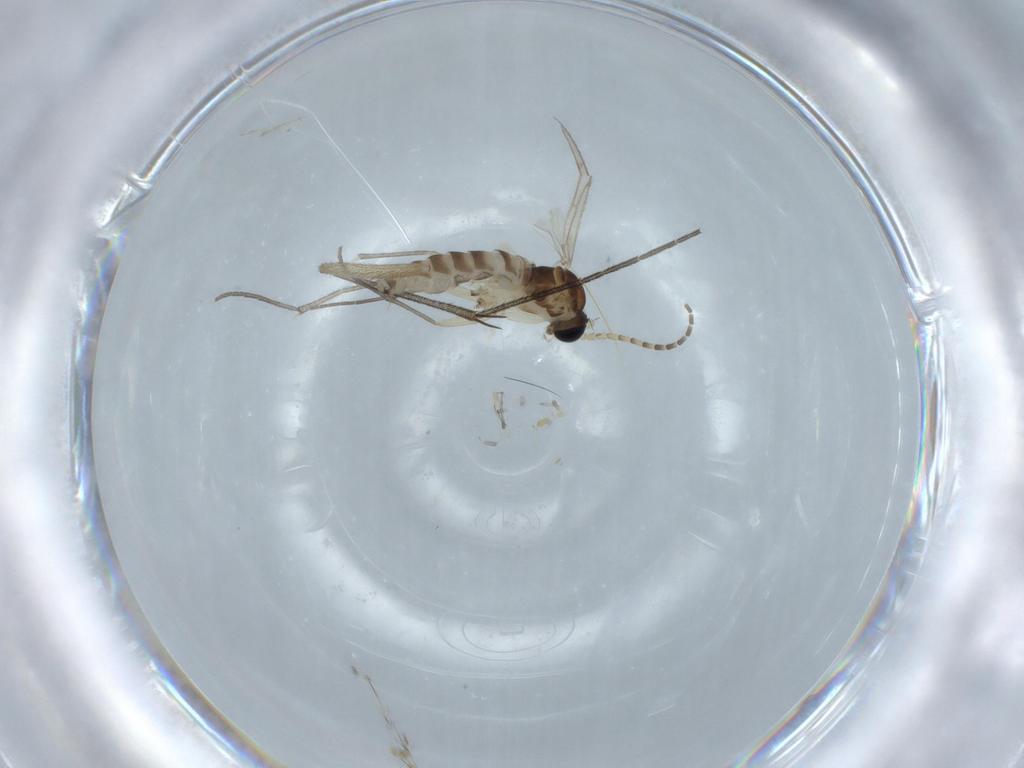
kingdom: Animalia
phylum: Arthropoda
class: Insecta
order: Diptera
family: Sciaridae
